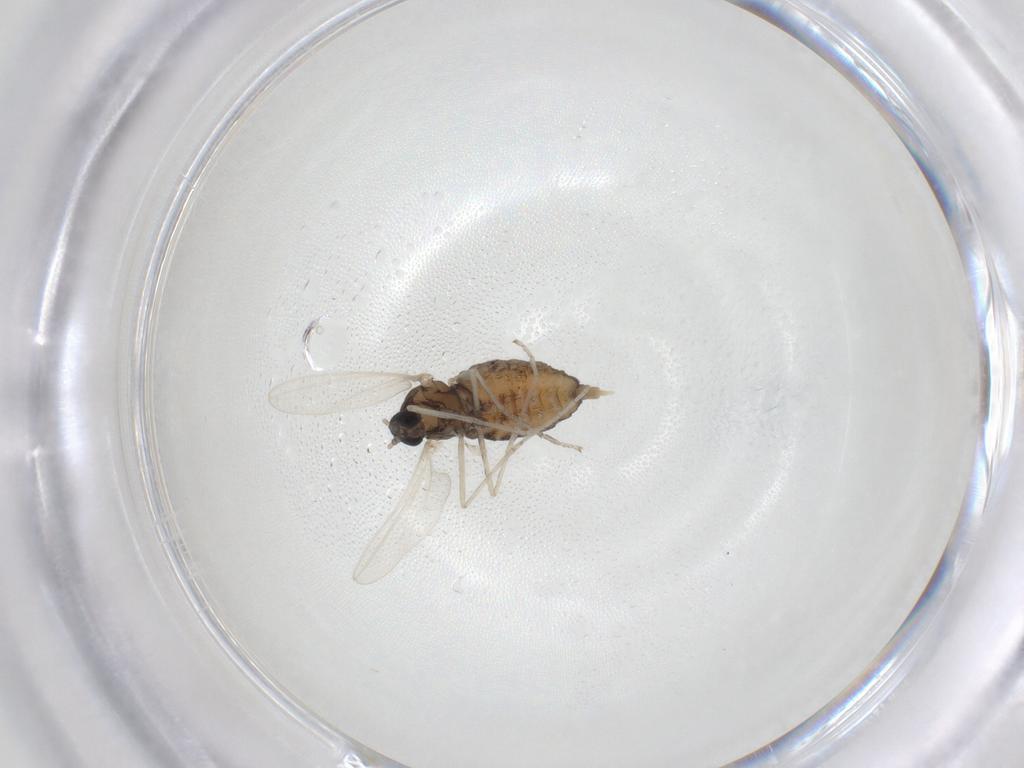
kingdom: Animalia
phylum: Arthropoda
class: Insecta
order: Diptera
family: Cecidomyiidae
